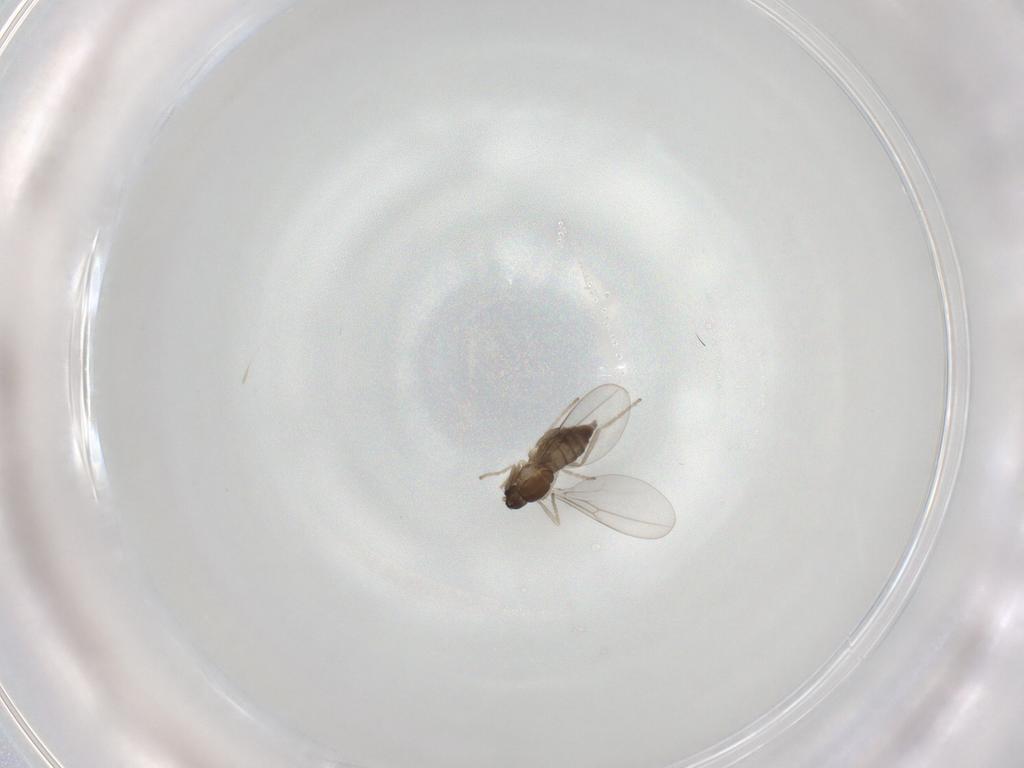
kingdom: Animalia
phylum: Arthropoda
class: Insecta
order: Diptera
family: Cecidomyiidae
